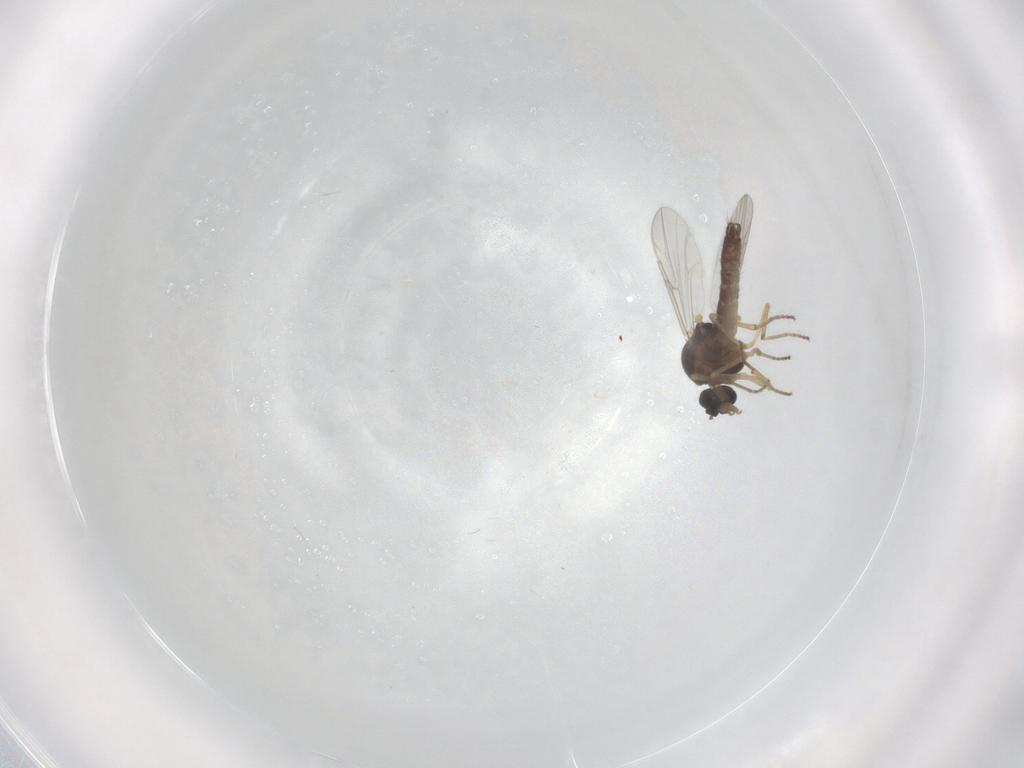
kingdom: Animalia
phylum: Arthropoda
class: Insecta
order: Diptera
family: Ceratopogonidae
